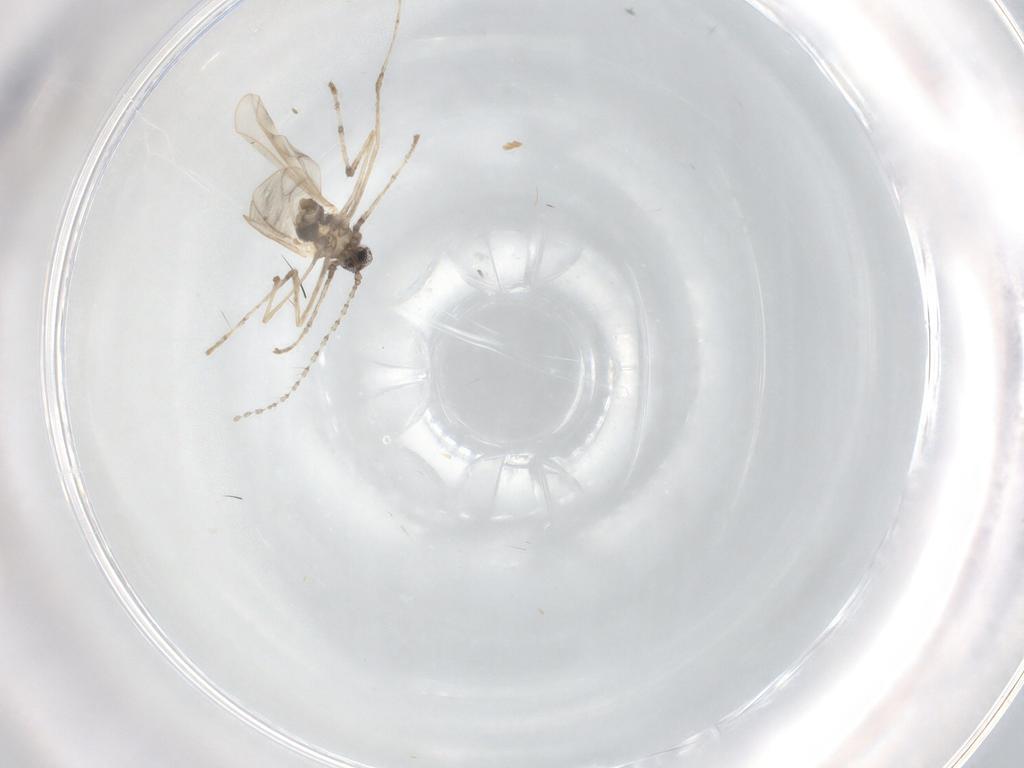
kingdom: Animalia
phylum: Arthropoda
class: Insecta
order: Diptera
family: Cecidomyiidae
